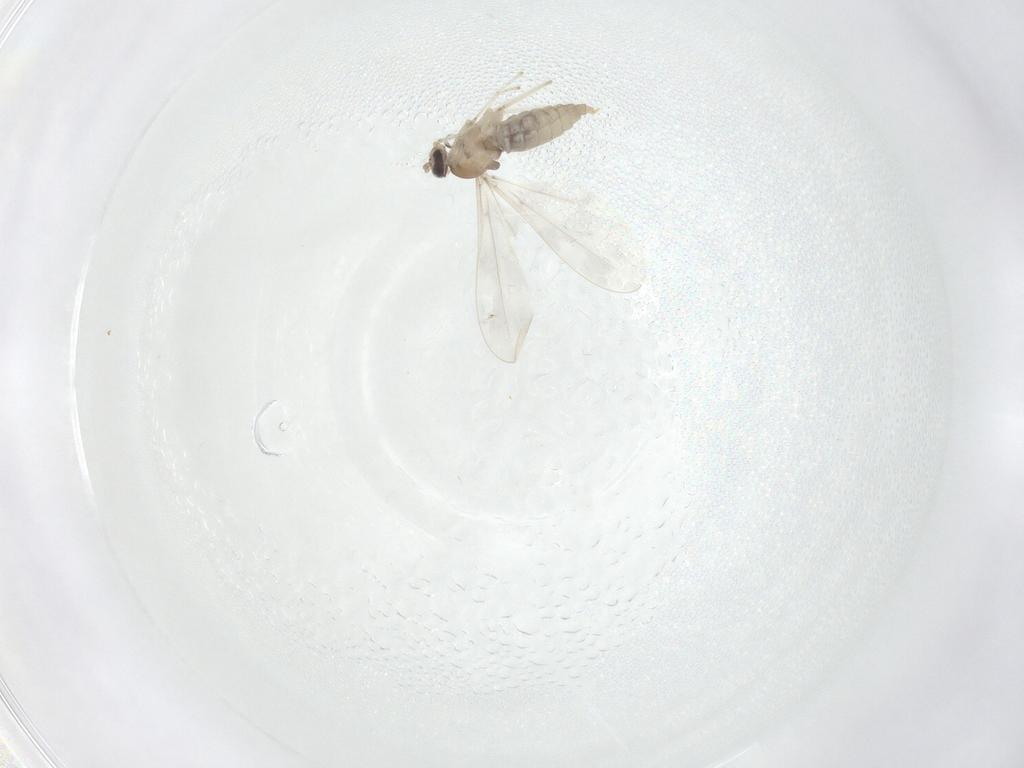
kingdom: Animalia
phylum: Arthropoda
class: Insecta
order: Diptera
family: Cecidomyiidae
